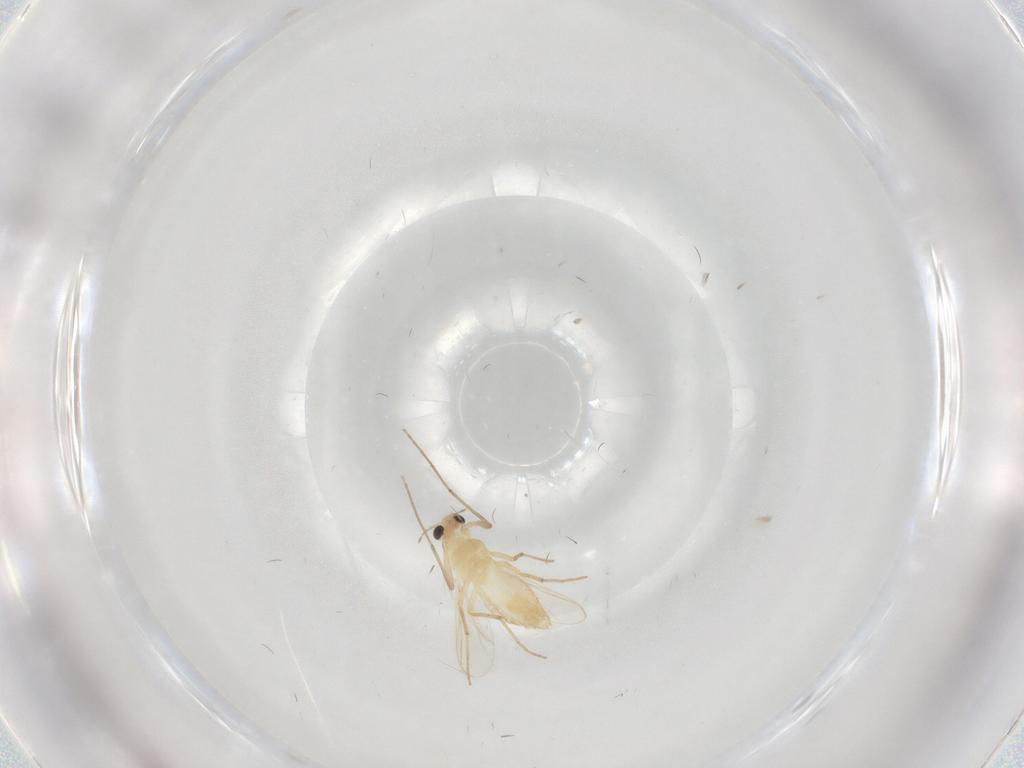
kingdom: Animalia
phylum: Arthropoda
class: Insecta
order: Diptera
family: Chironomidae
